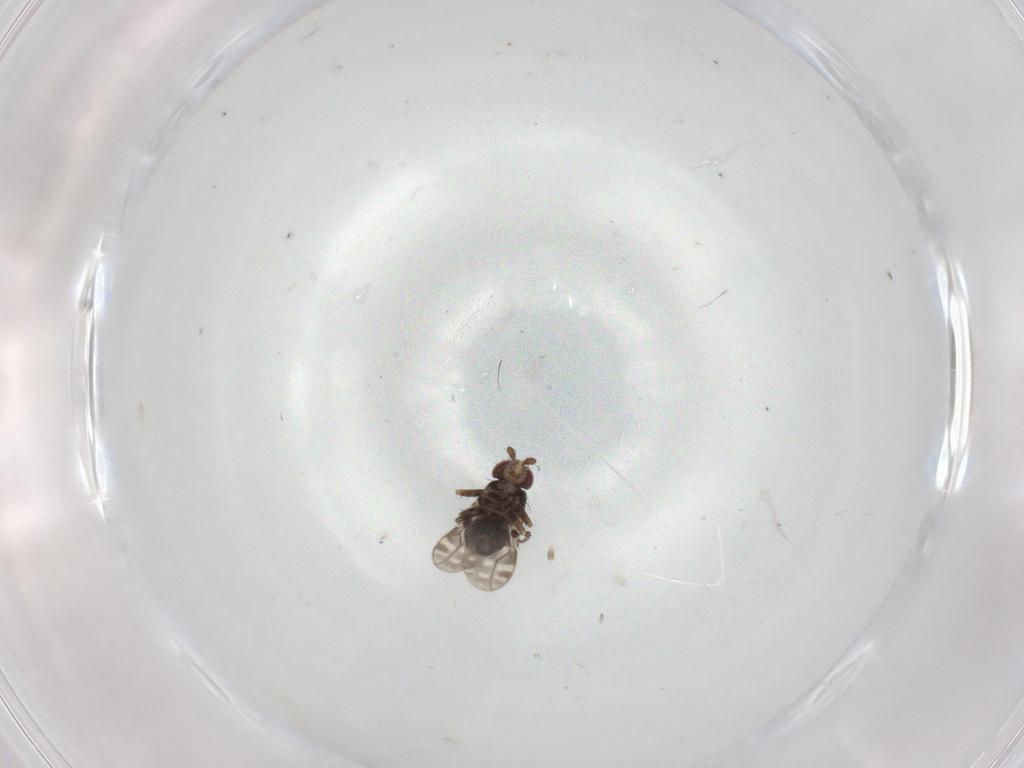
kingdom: Animalia
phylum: Arthropoda
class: Insecta
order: Diptera
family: Sphaeroceridae
